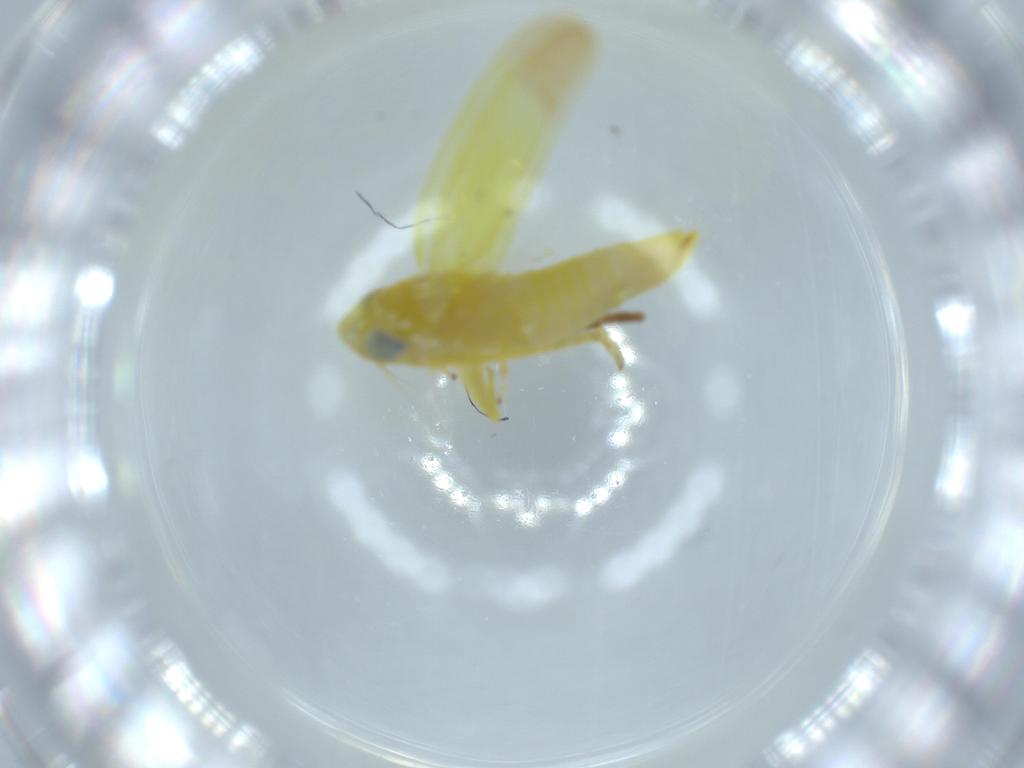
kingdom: Animalia
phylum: Arthropoda
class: Insecta
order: Hemiptera
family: Cicadellidae
